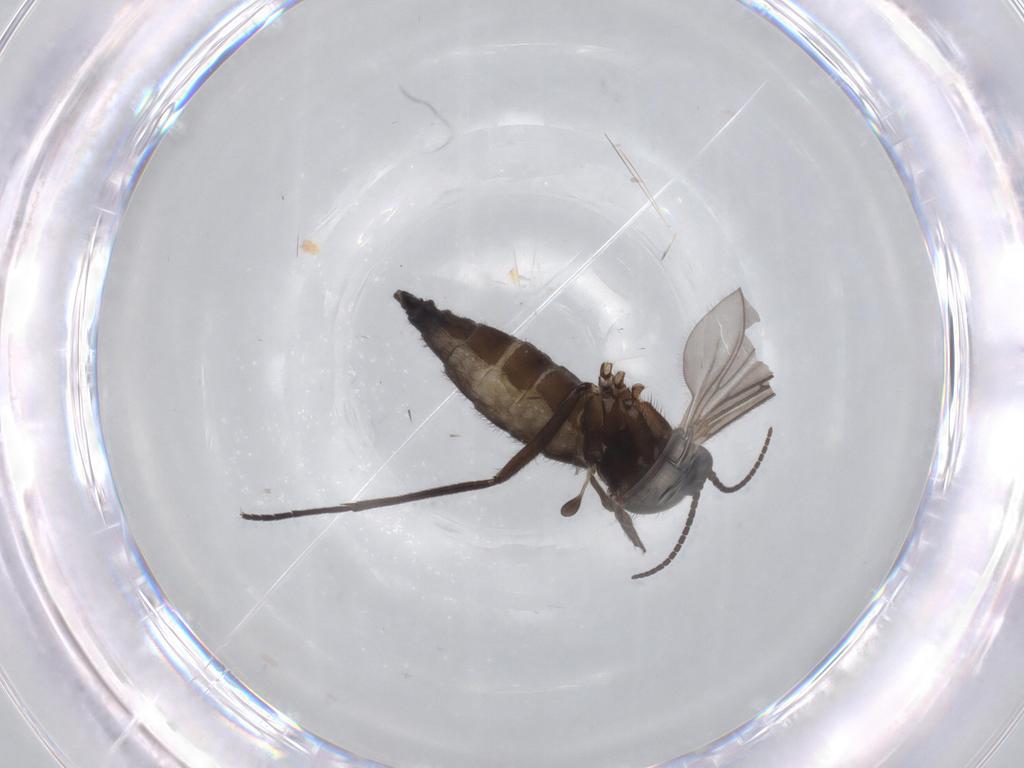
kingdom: Animalia
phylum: Arthropoda
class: Insecta
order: Diptera
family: Sciaridae
